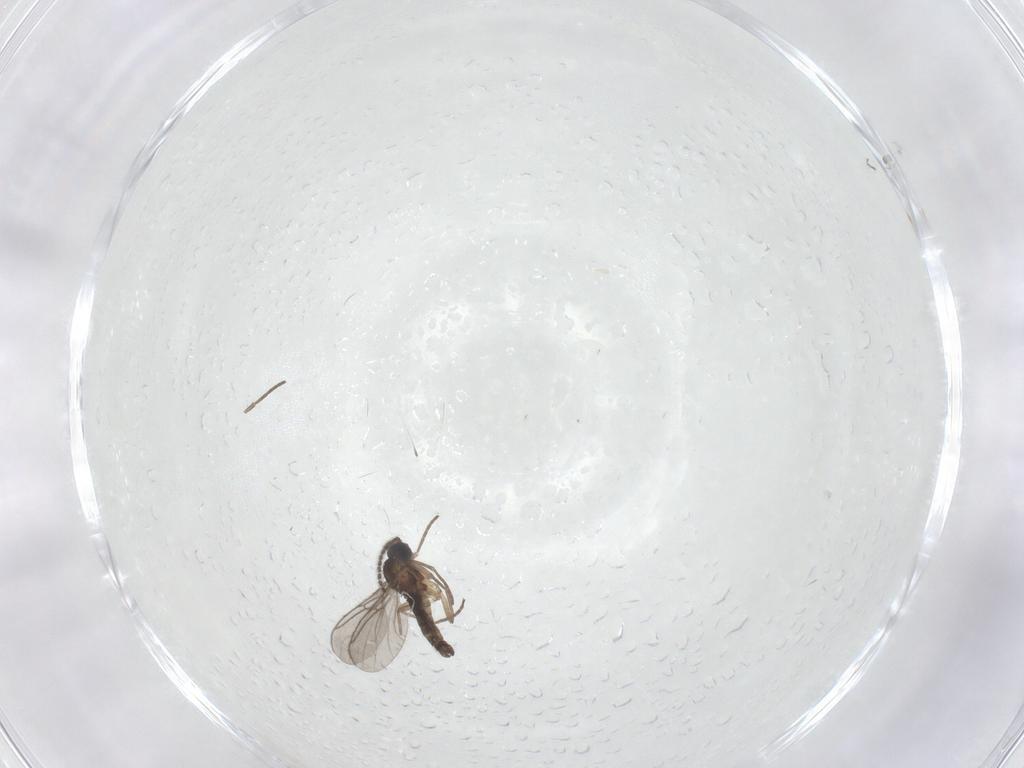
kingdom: Animalia
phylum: Arthropoda
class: Insecta
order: Diptera
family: Sciaridae
